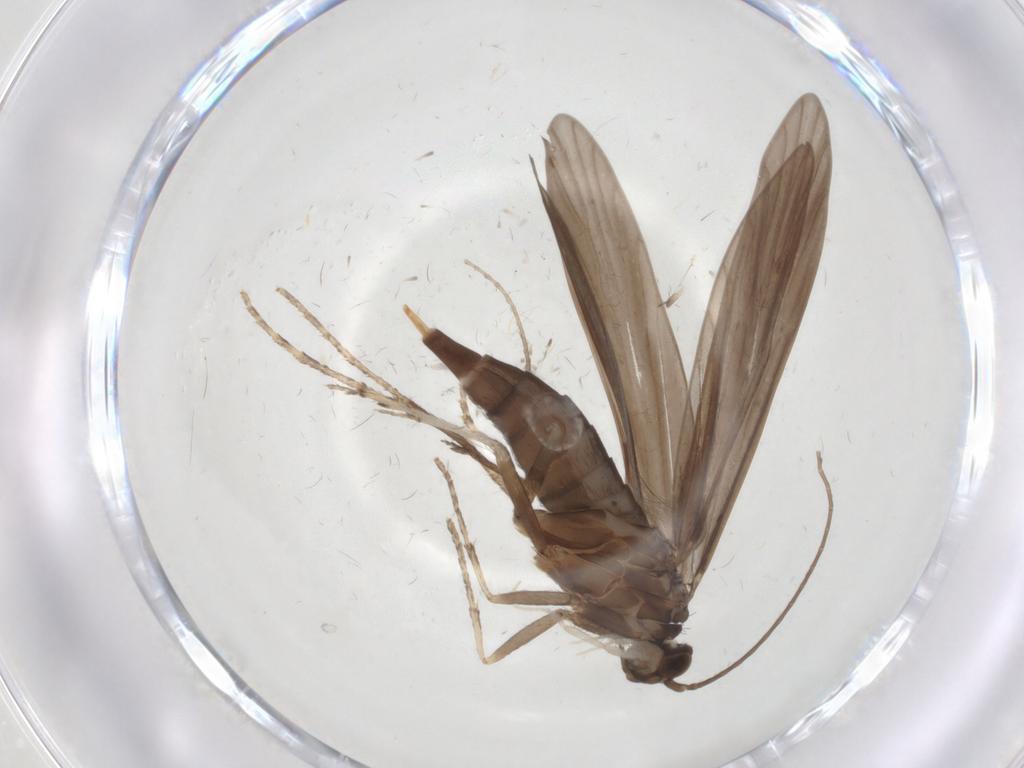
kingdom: Animalia
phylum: Arthropoda
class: Insecta
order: Trichoptera
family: Xiphocentronidae
